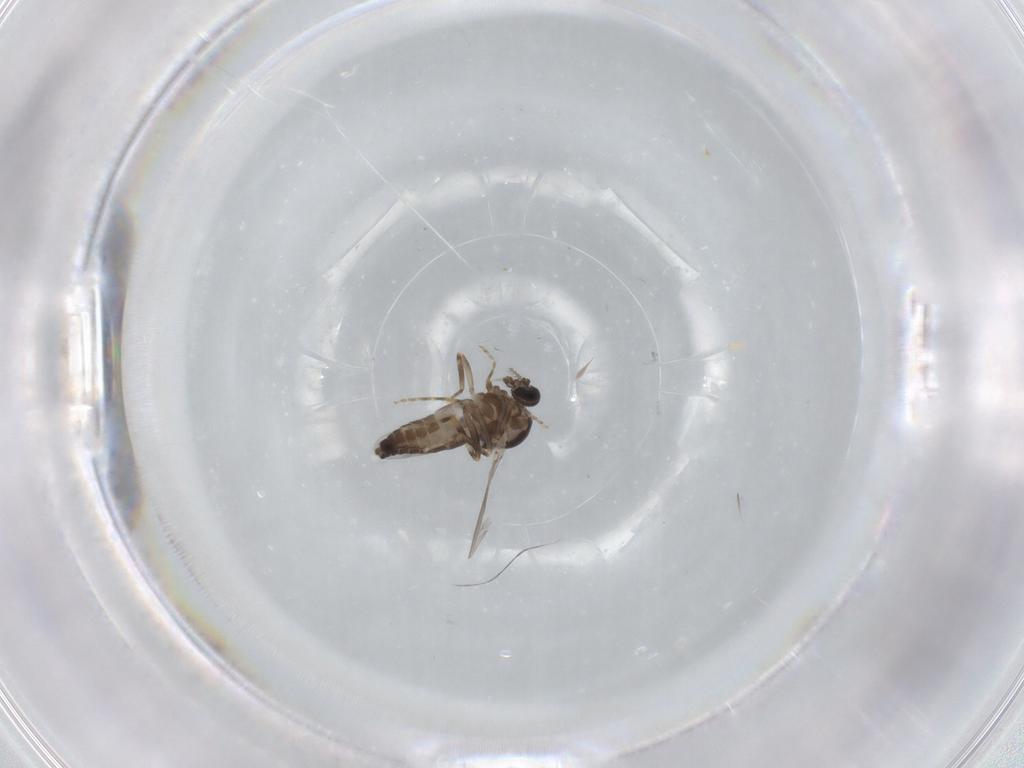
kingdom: Animalia
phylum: Arthropoda
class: Insecta
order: Diptera
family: Ceratopogonidae
